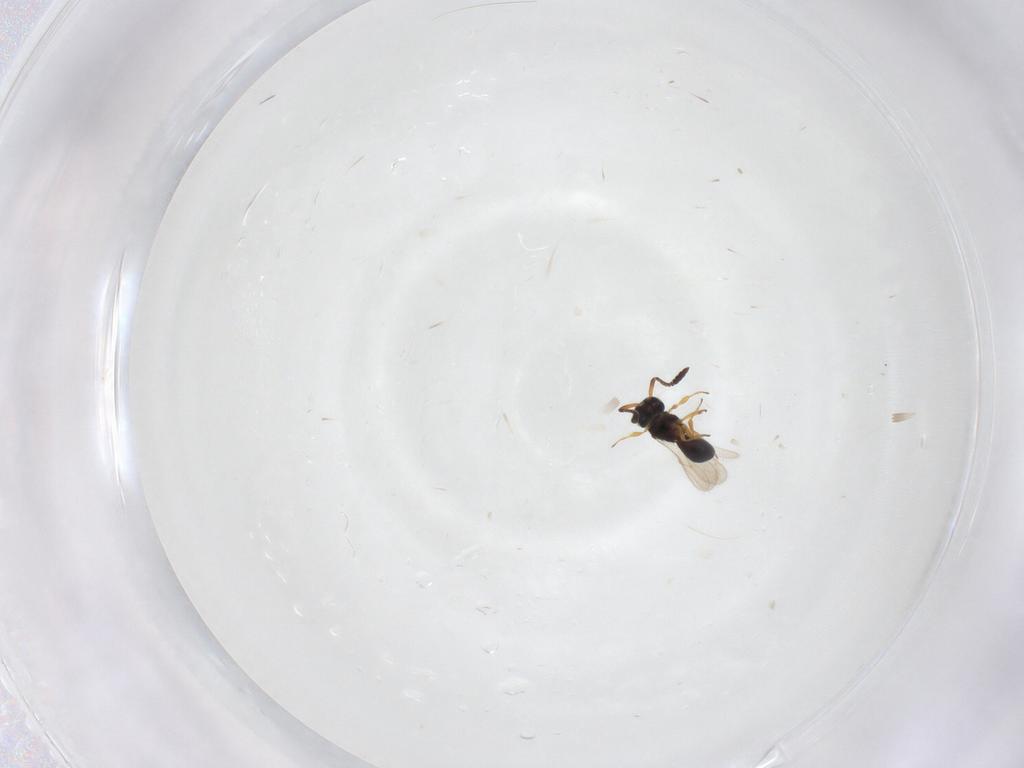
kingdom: Animalia
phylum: Arthropoda
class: Insecta
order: Hymenoptera
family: Scelionidae
